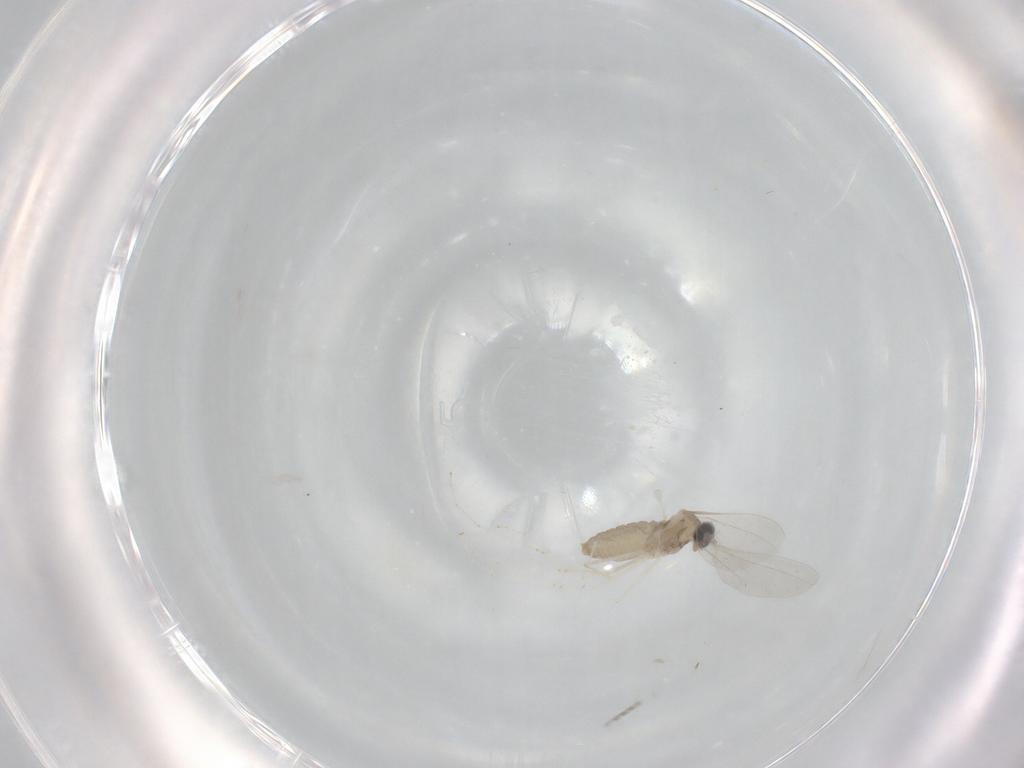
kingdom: Animalia
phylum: Arthropoda
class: Insecta
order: Diptera
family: Cecidomyiidae
